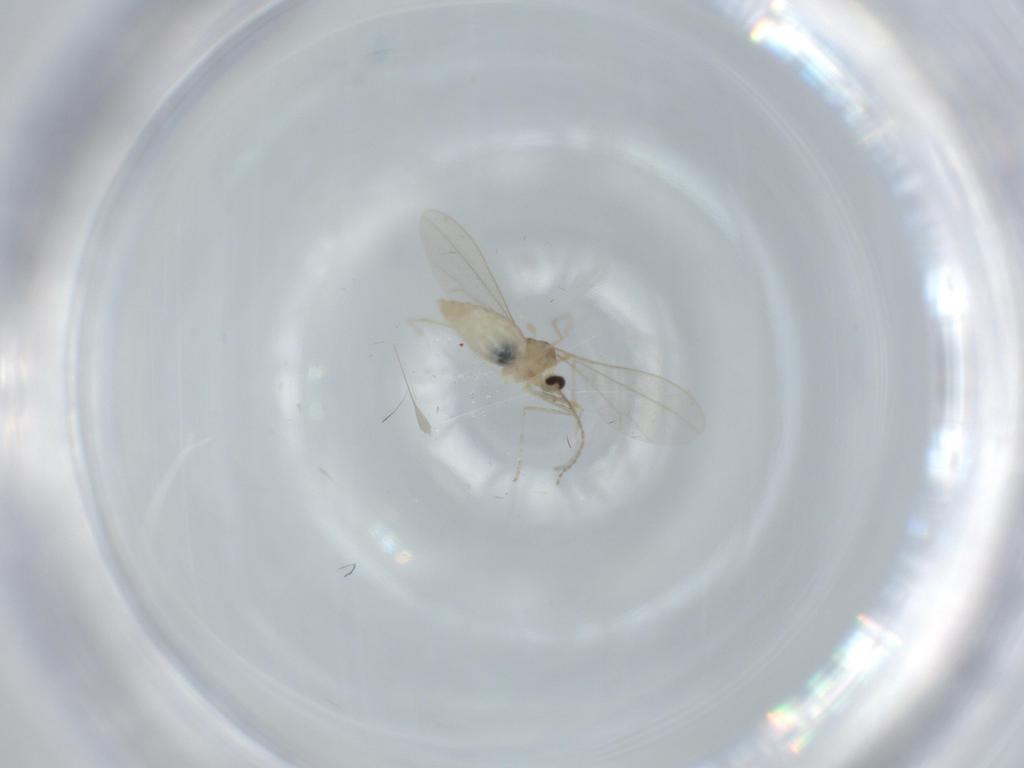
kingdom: Animalia
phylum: Arthropoda
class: Insecta
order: Diptera
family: Cecidomyiidae
